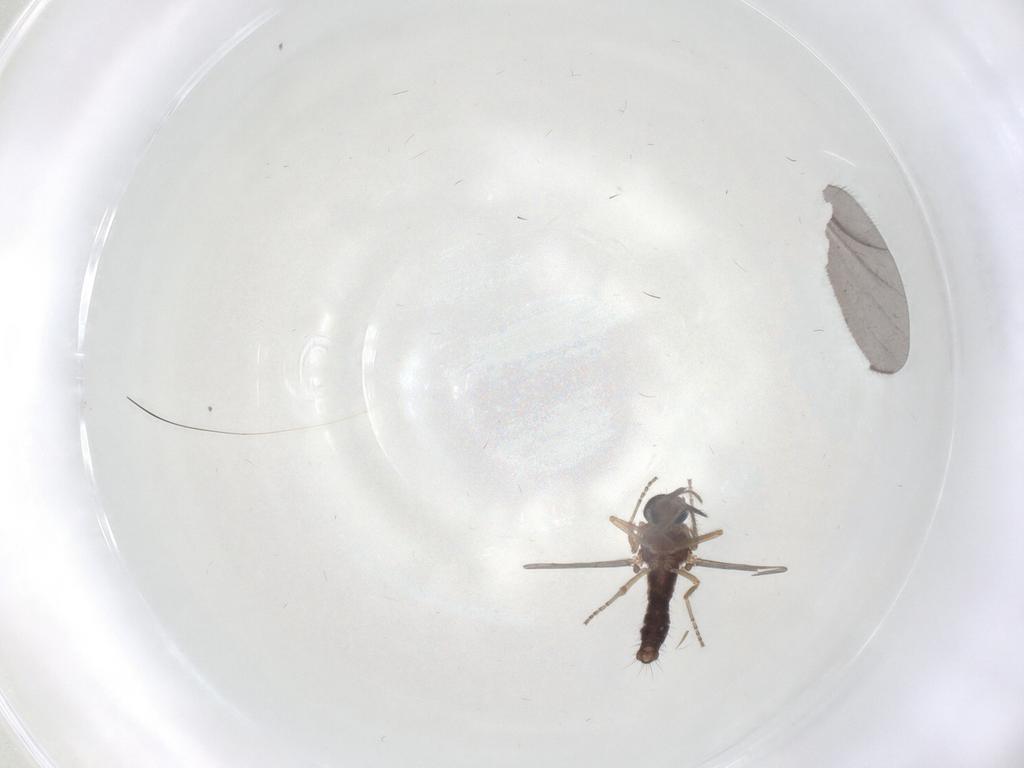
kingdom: Animalia
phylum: Arthropoda
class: Insecta
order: Diptera
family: Ceratopogonidae
